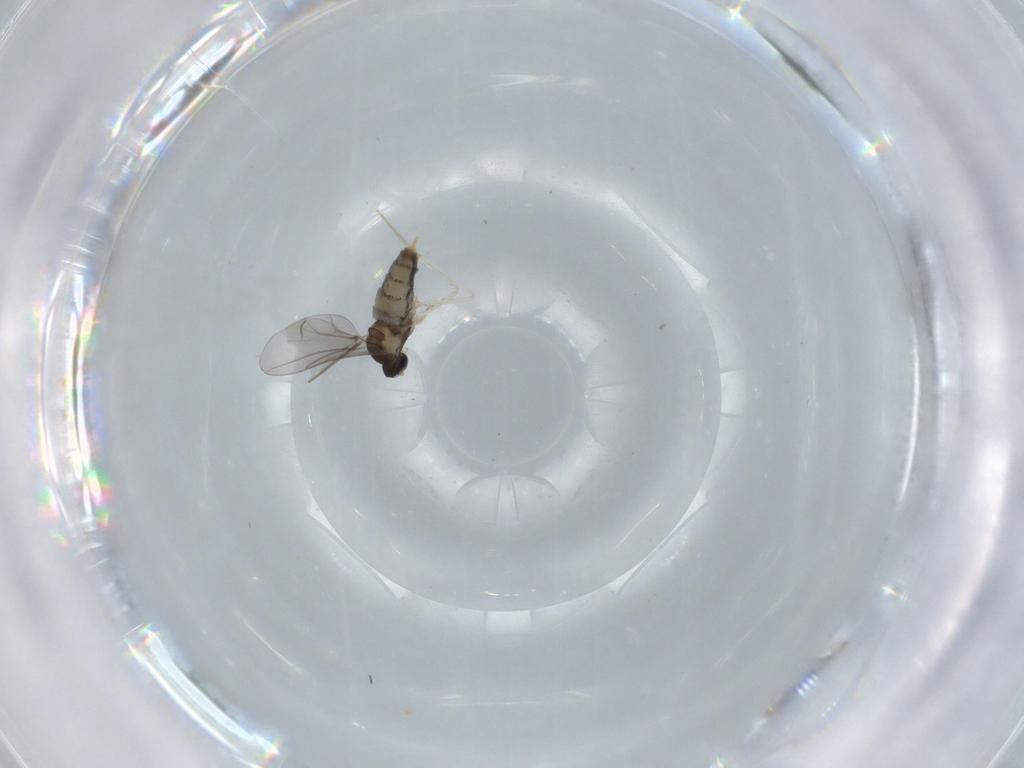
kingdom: Animalia
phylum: Arthropoda
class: Insecta
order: Diptera
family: Cecidomyiidae
